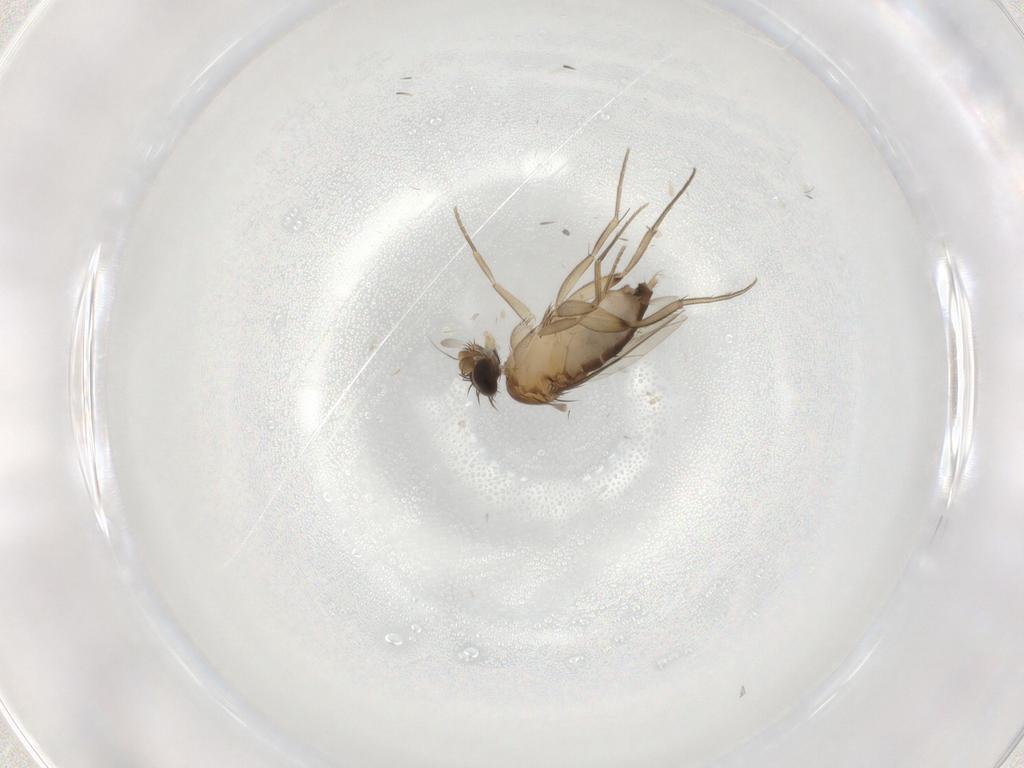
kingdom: Animalia
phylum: Arthropoda
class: Insecta
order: Diptera
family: Phoridae
